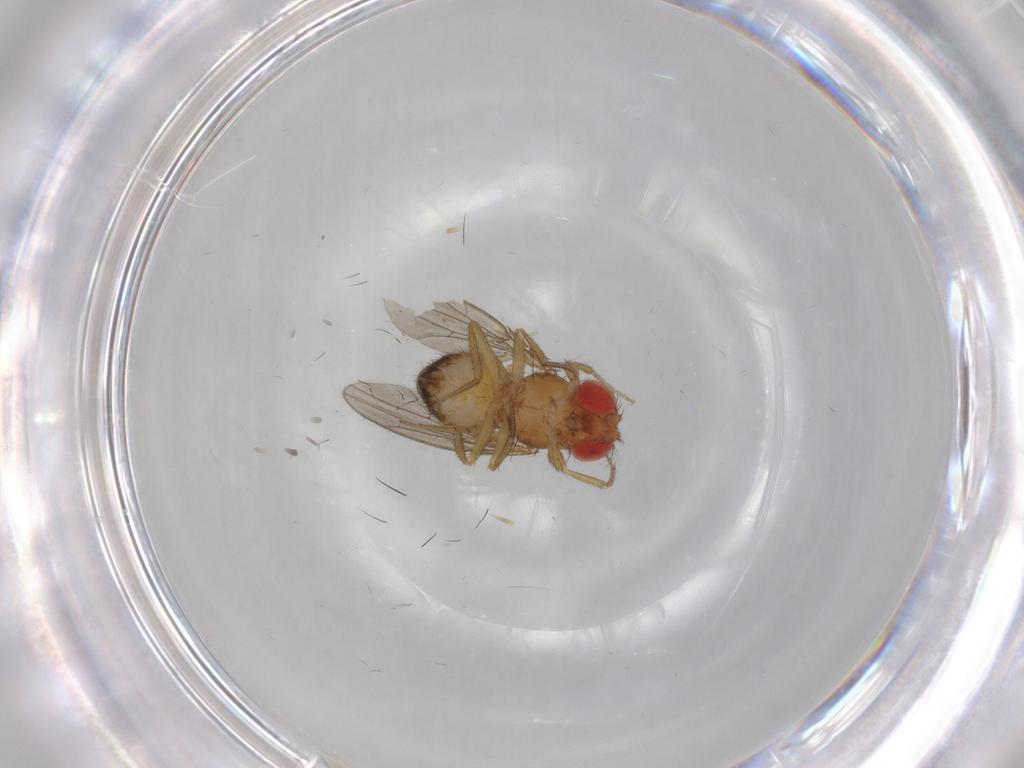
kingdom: Animalia
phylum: Arthropoda
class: Insecta
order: Diptera
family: Drosophilidae
